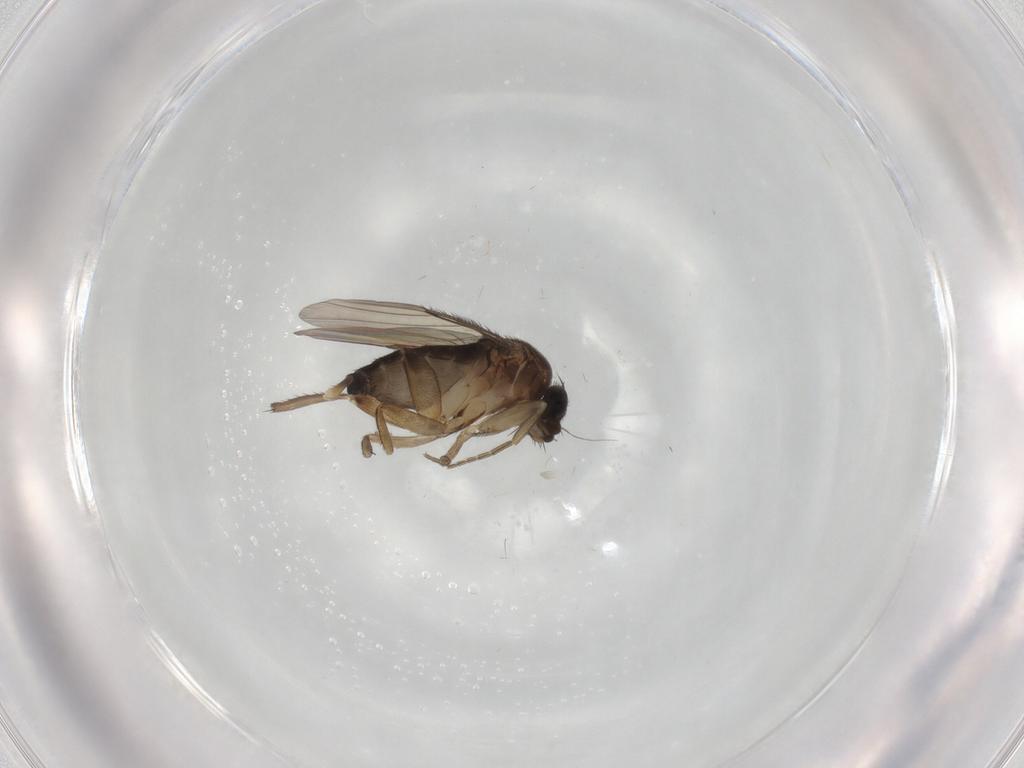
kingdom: Animalia
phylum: Arthropoda
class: Insecta
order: Diptera
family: Phoridae
